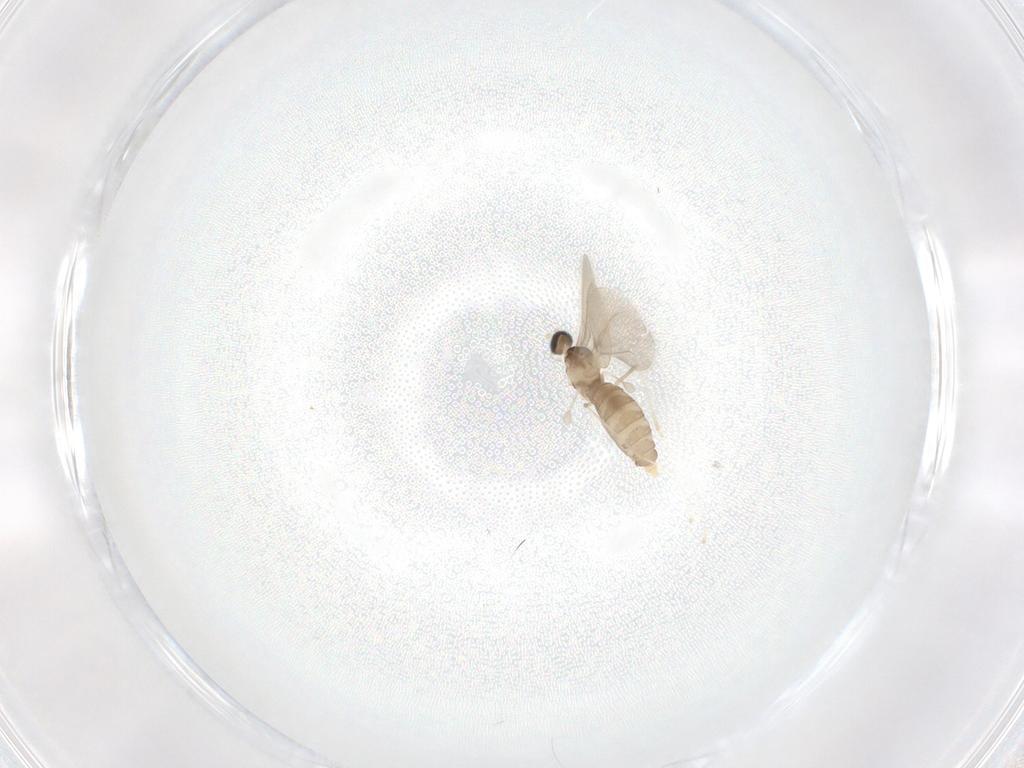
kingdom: Animalia
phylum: Arthropoda
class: Insecta
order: Diptera
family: Cecidomyiidae
